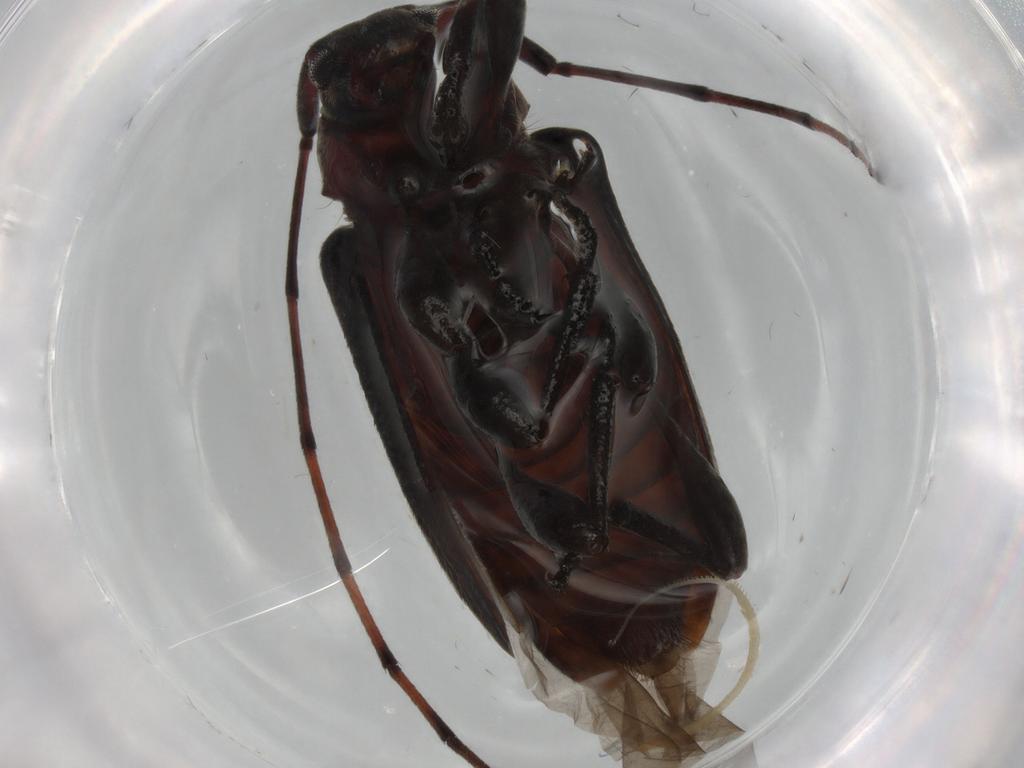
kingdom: Animalia
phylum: Arthropoda
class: Insecta
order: Coleoptera
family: Cerambycidae
